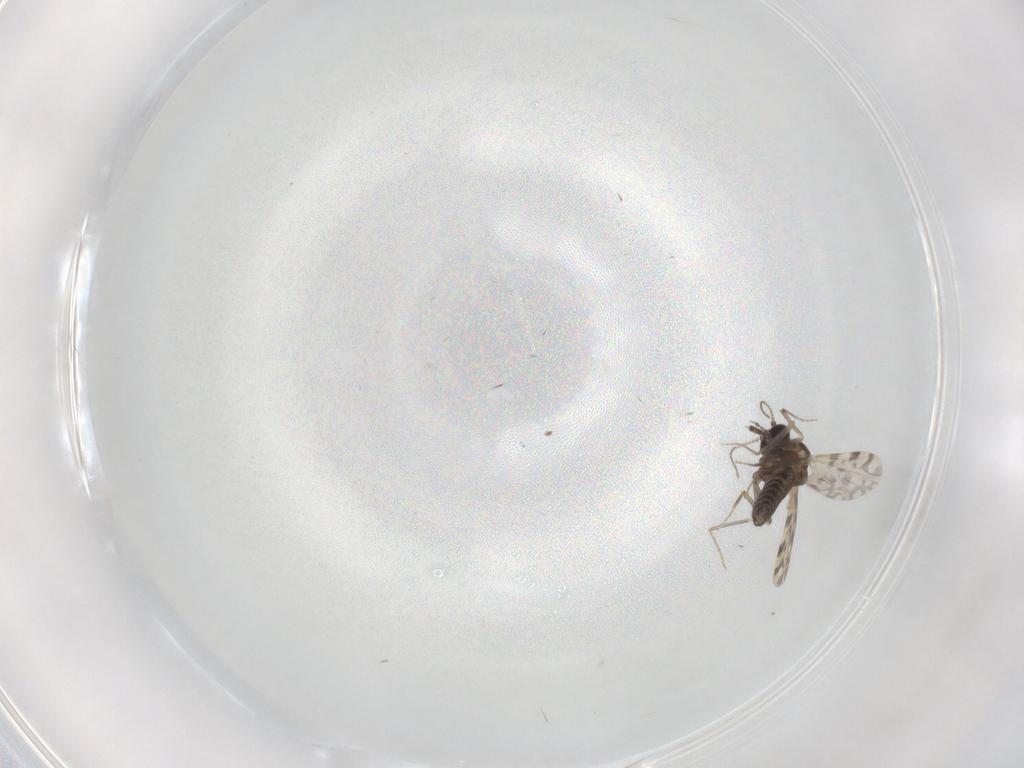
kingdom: Animalia
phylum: Arthropoda
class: Insecta
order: Diptera
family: Ceratopogonidae
